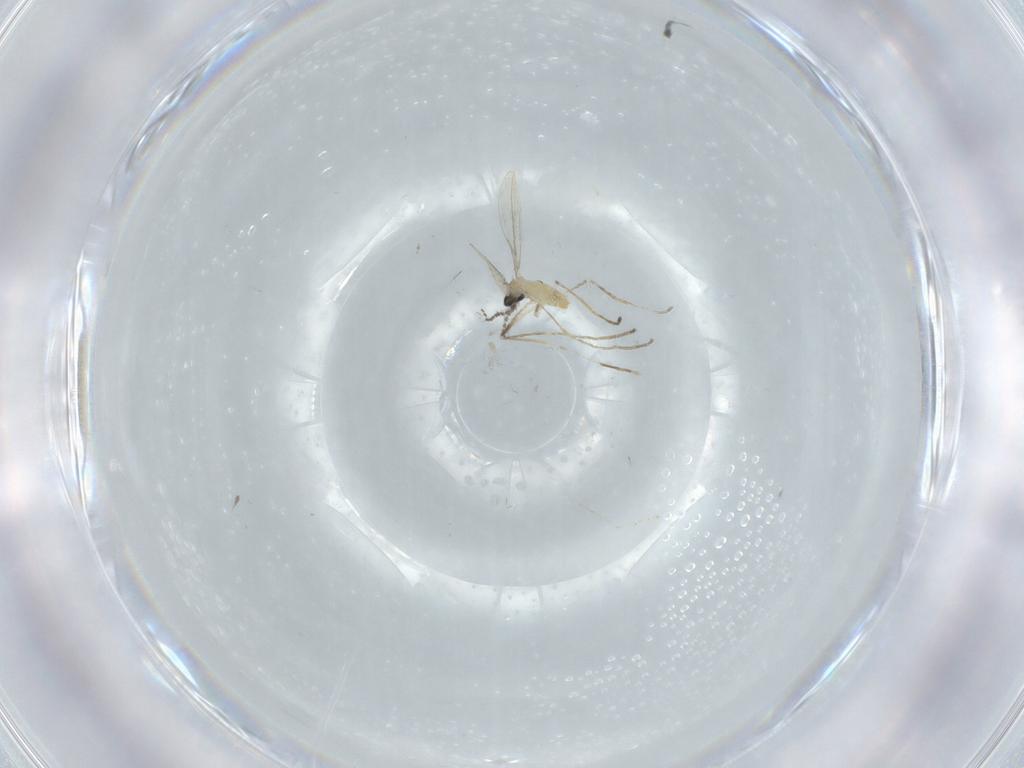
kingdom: Animalia
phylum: Arthropoda
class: Insecta
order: Diptera
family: Cecidomyiidae
